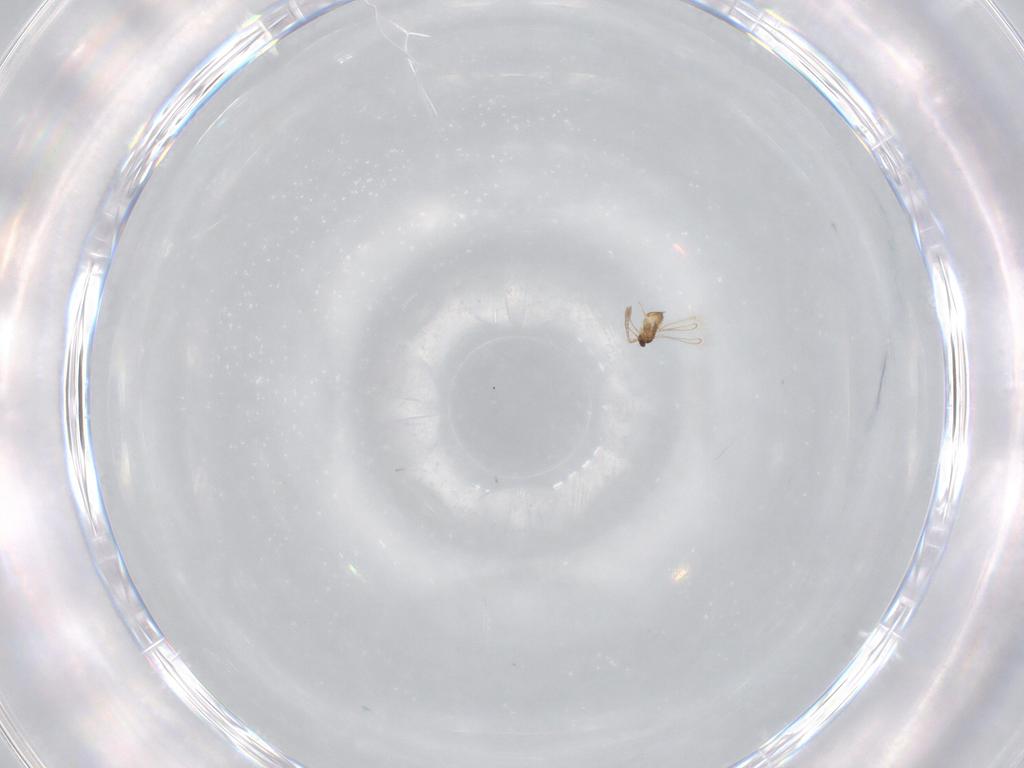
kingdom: Animalia
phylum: Arthropoda
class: Insecta
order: Hymenoptera
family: Mymaridae
